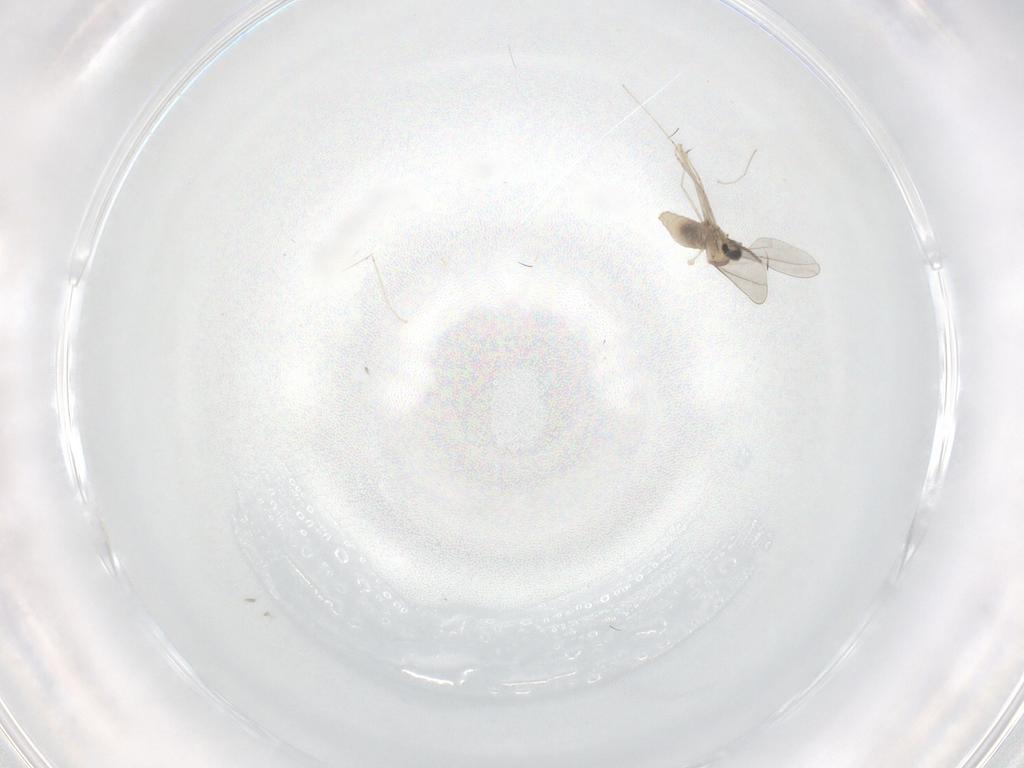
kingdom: Animalia
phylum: Arthropoda
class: Insecta
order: Diptera
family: Cecidomyiidae
